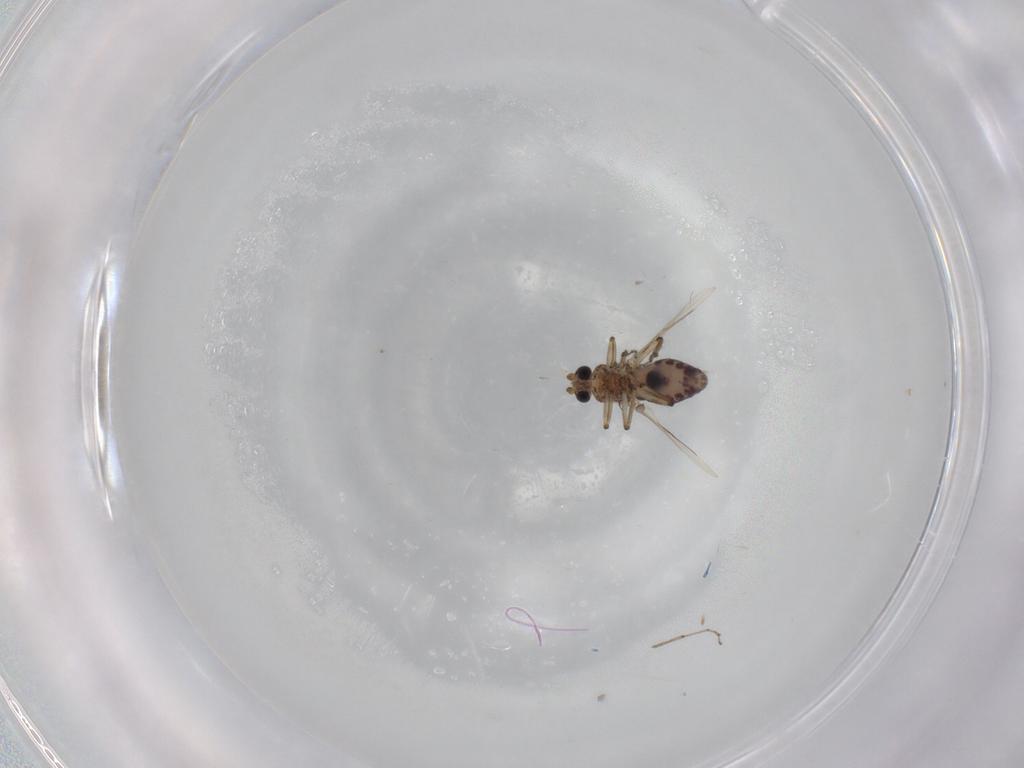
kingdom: Animalia
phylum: Arthropoda
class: Insecta
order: Diptera
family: Ceratopogonidae
